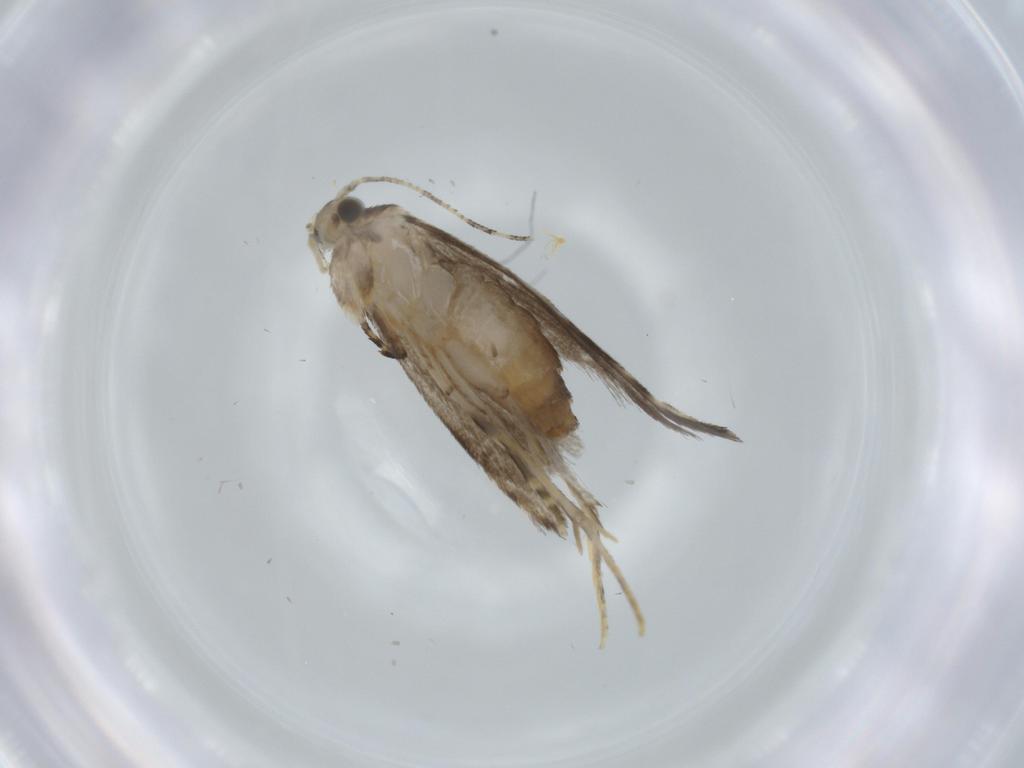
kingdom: Animalia
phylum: Arthropoda
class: Insecta
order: Lepidoptera
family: Tineidae
